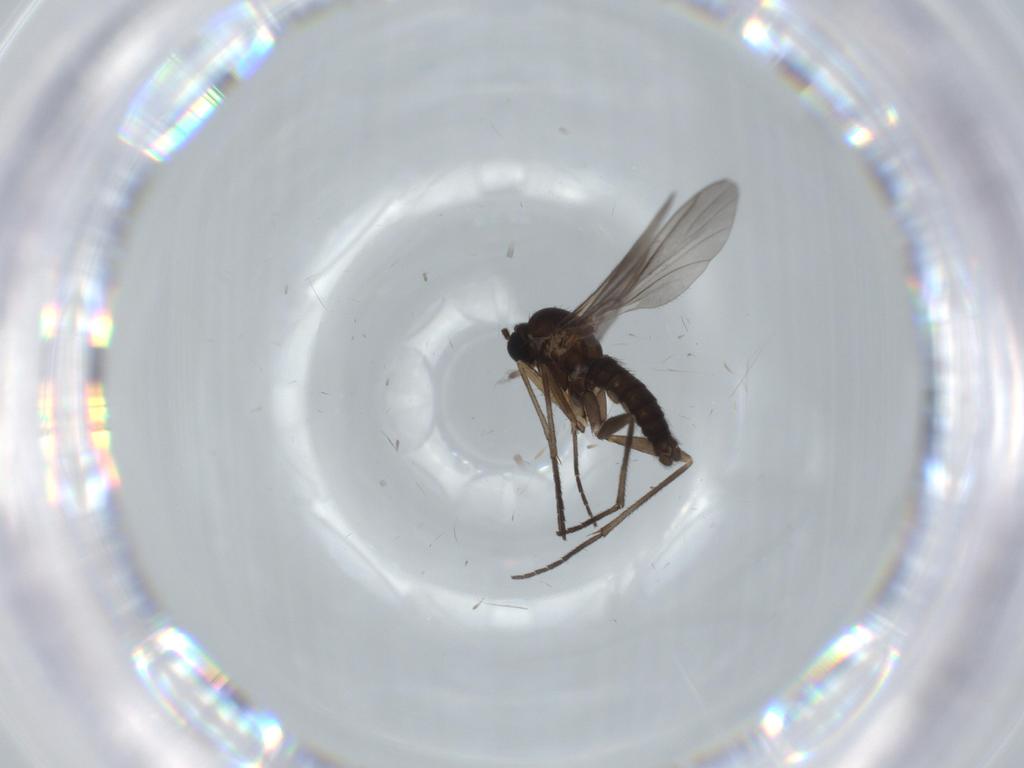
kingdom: Animalia
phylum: Arthropoda
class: Insecta
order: Diptera
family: Sciaridae
